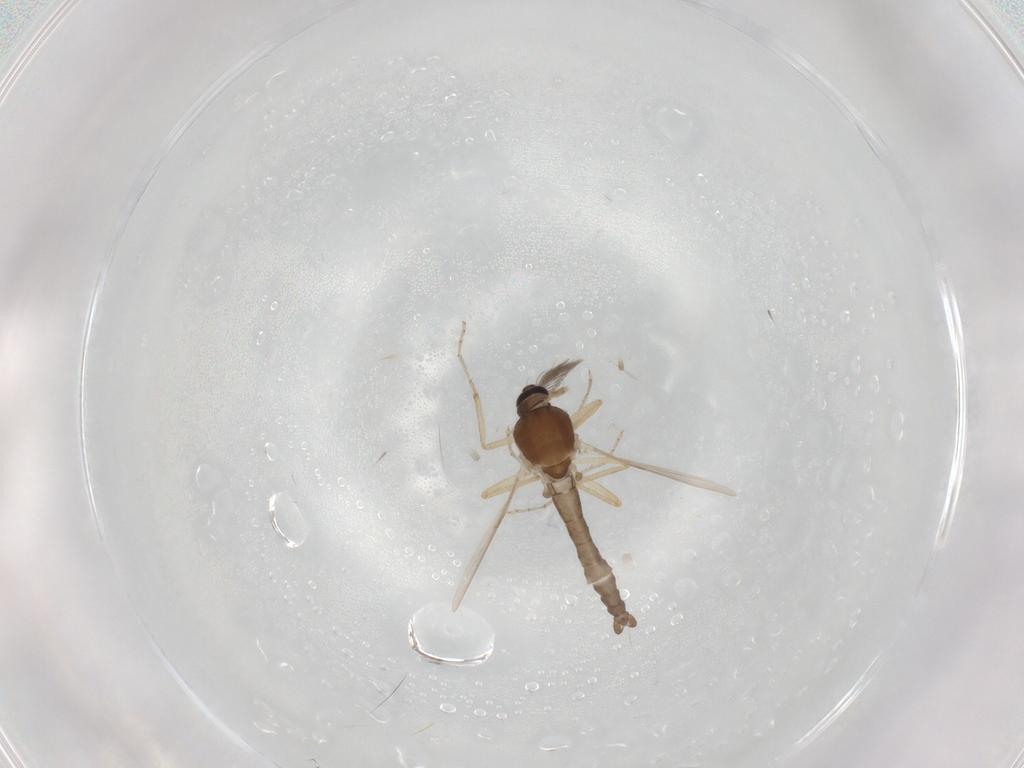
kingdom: Animalia
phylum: Arthropoda
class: Insecta
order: Diptera
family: Ceratopogonidae
